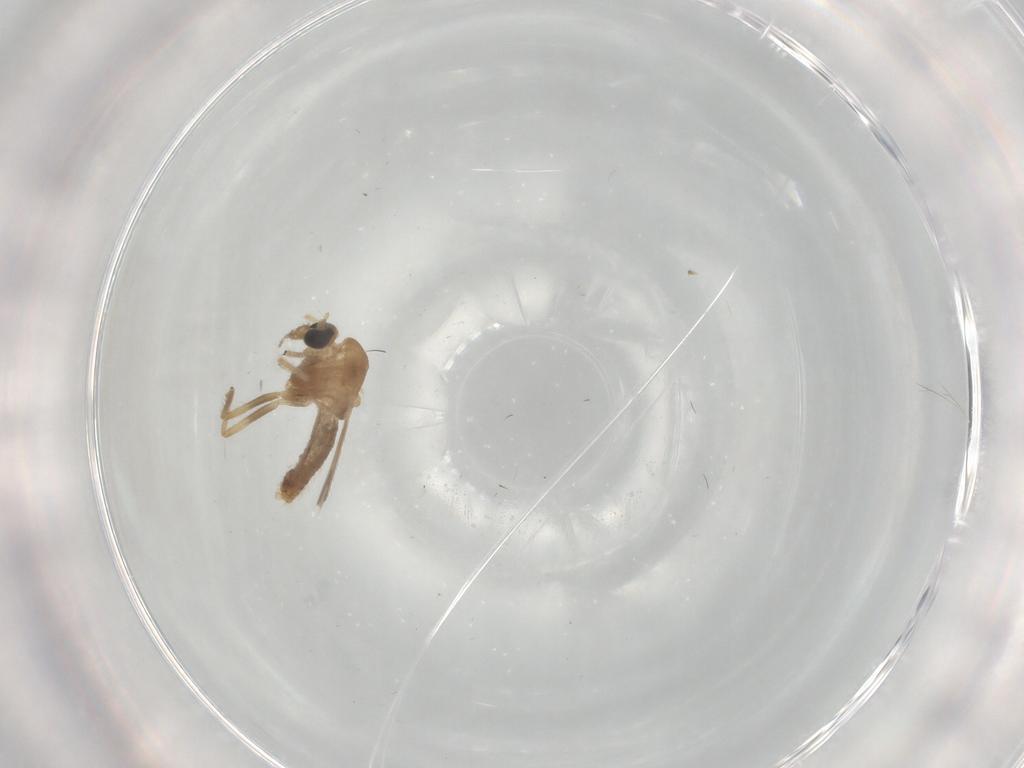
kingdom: Animalia
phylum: Arthropoda
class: Insecta
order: Diptera
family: Chironomidae
